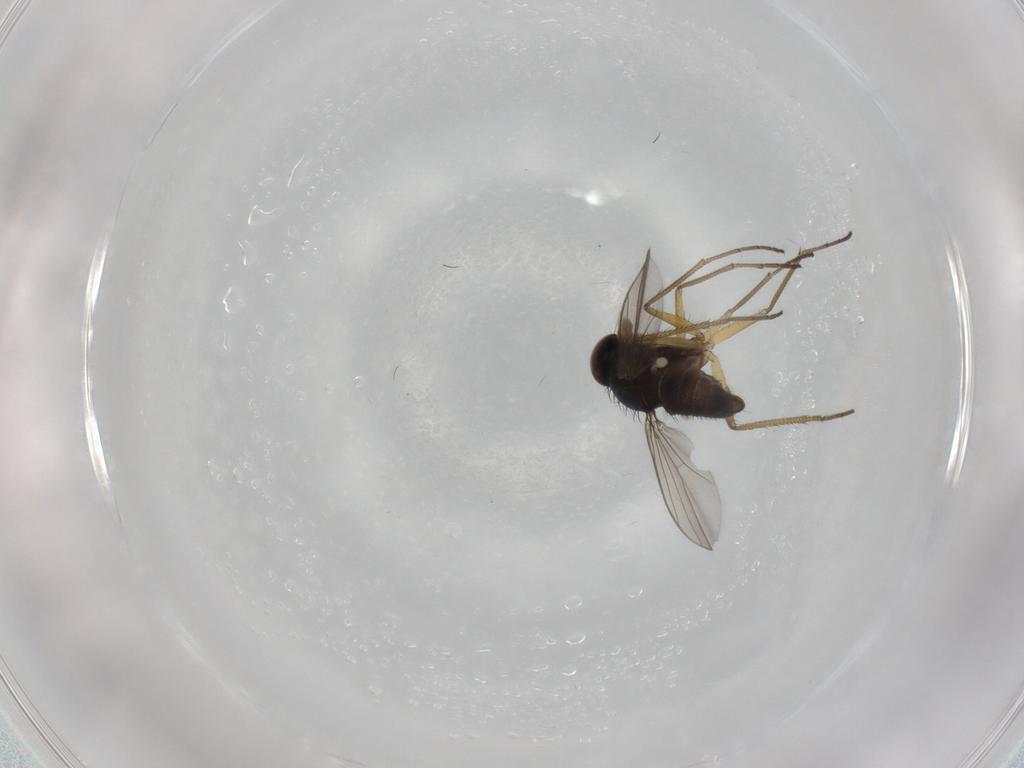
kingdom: Animalia
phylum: Arthropoda
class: Insecta
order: Diptera
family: Dolichopodidae
